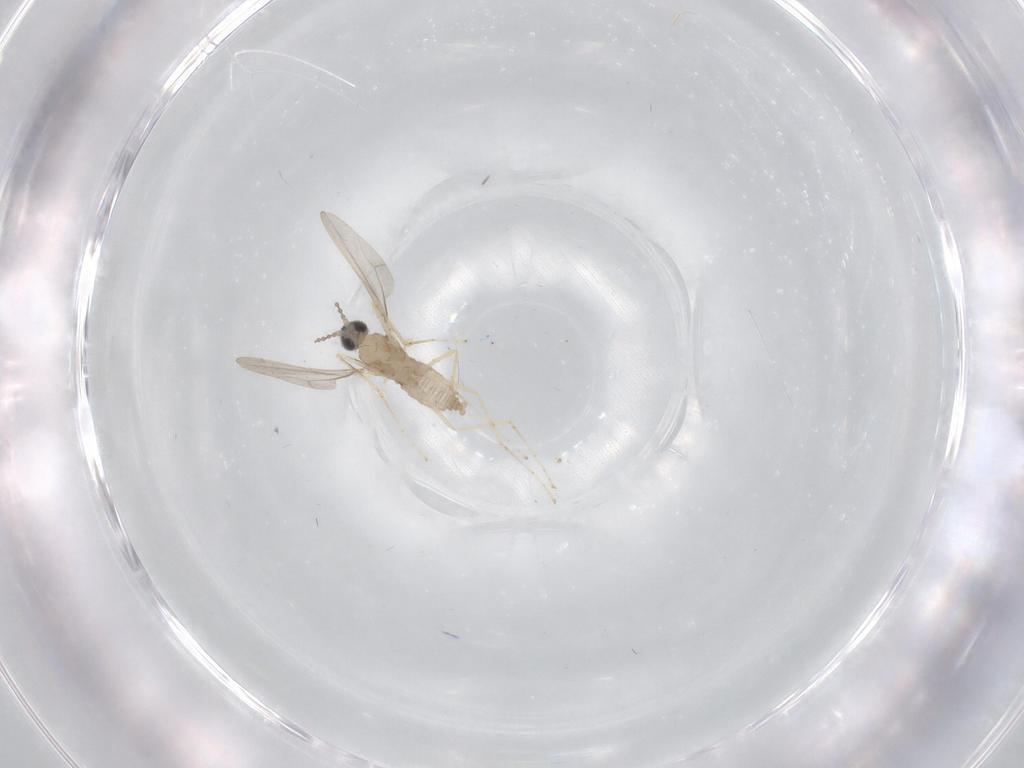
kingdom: Animalia
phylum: Arthropoda
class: Insecta
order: Diptera
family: Cecidomyiidae
